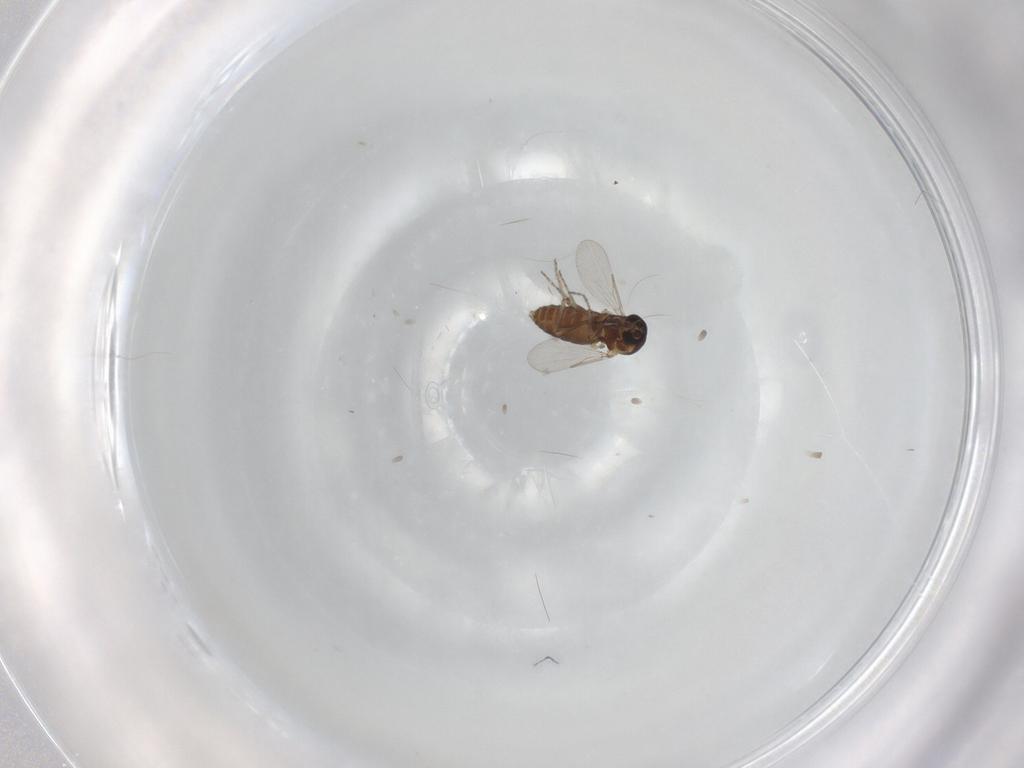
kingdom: Animalia
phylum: Arthropoda
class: Insecta
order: Diptera
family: Ceratopogonidae
